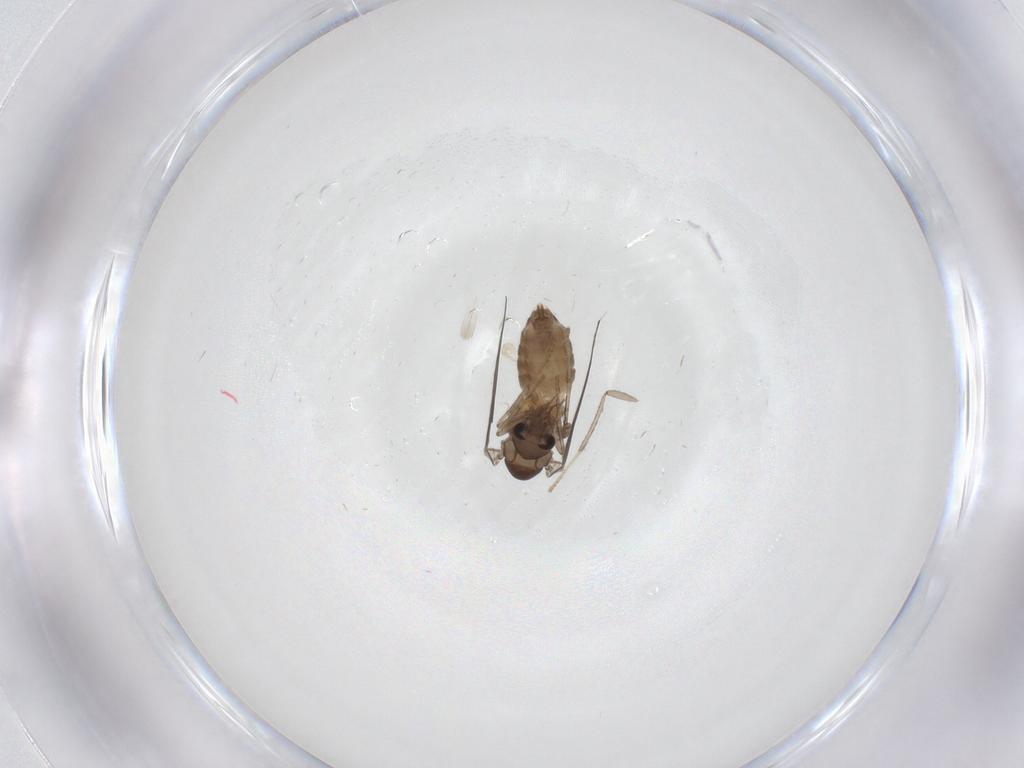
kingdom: Animalia
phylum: Arthropoda
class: Insecta
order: Diptera
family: Psychodidae
